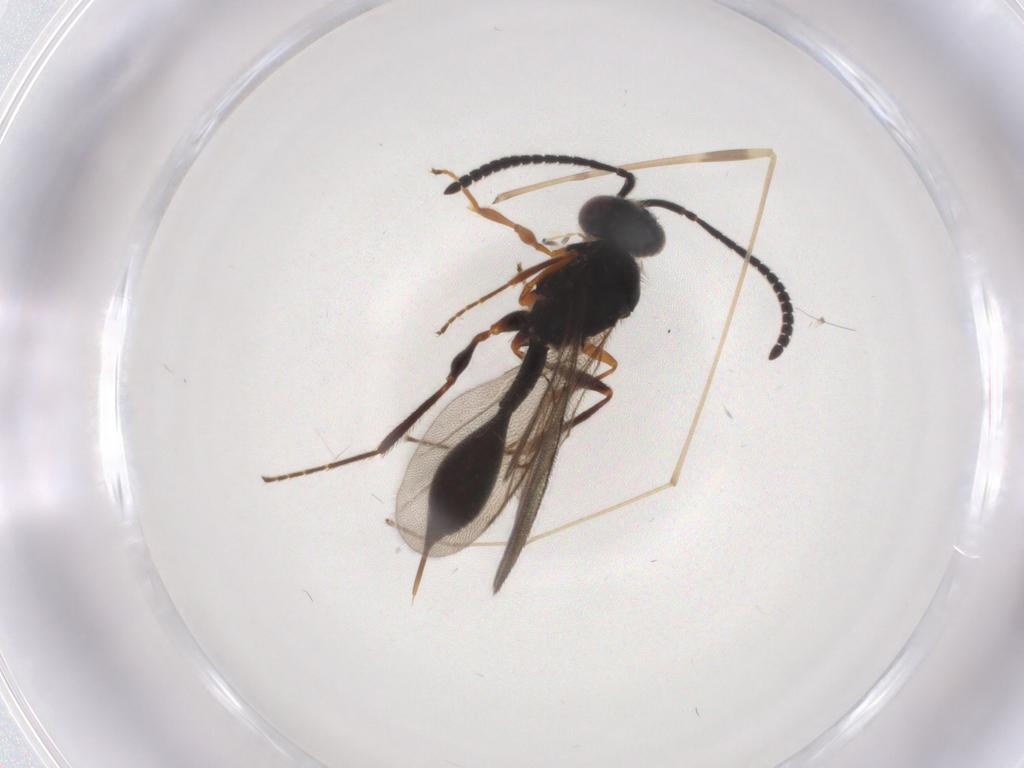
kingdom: Animalia
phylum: Arthropoda
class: Insecta
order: Hymenoptera
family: Diapriidae
